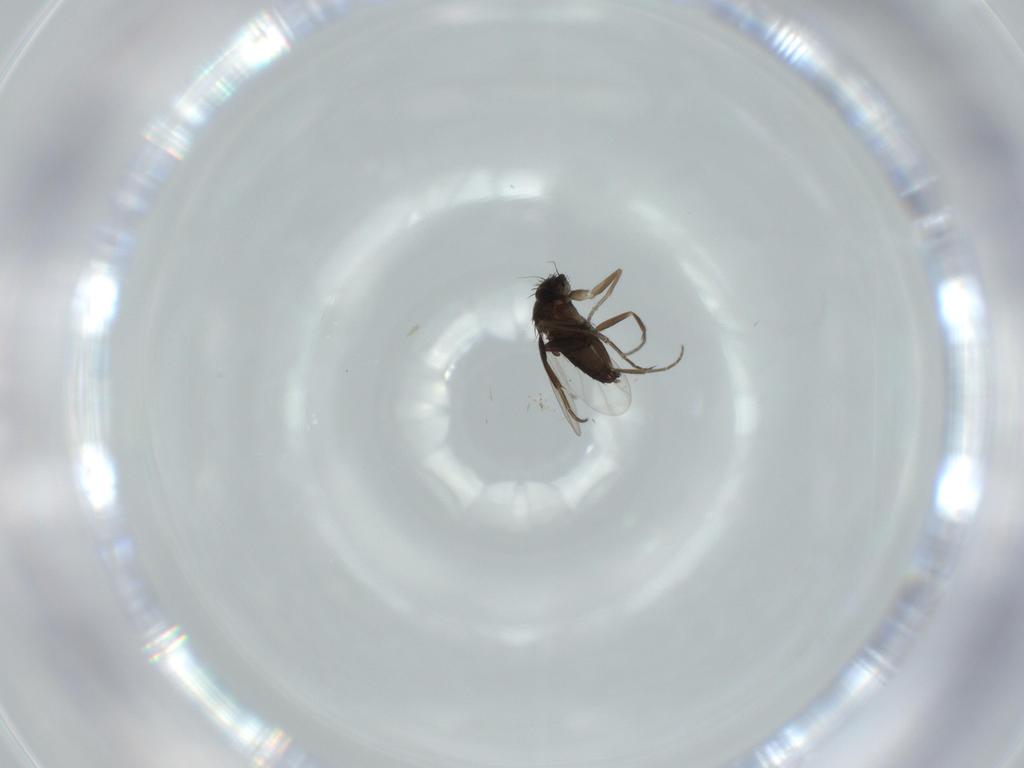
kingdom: Animalia
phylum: Arthropoda
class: Insecta
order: Diptera
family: Phoridae
